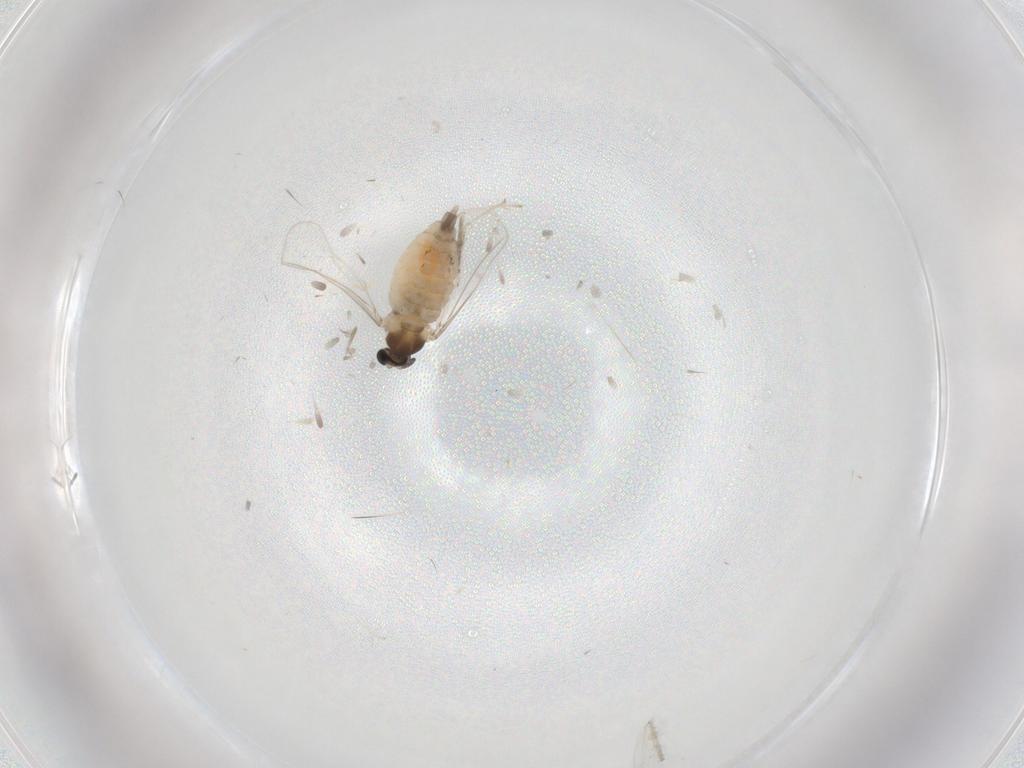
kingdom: Animalia
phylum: Arthropoda
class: Insecta
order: Diptera
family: Cecidomyiidae
